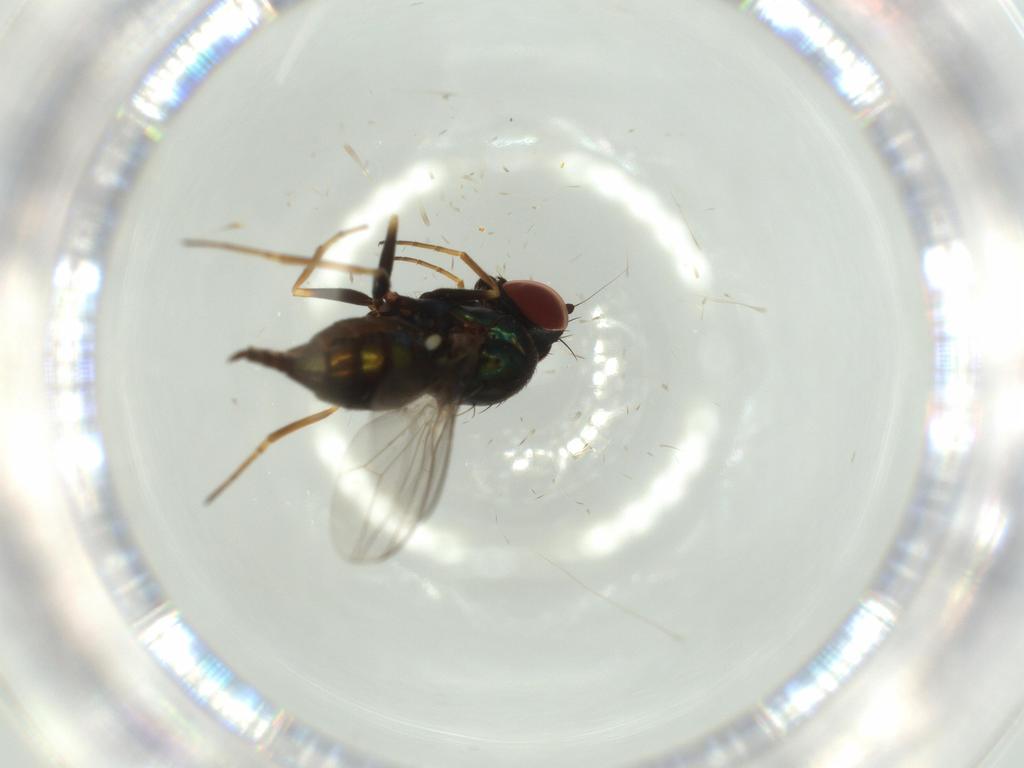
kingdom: Animalia
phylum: Arthropoda
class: Insecta
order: Diptera
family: Dolichopodidae
